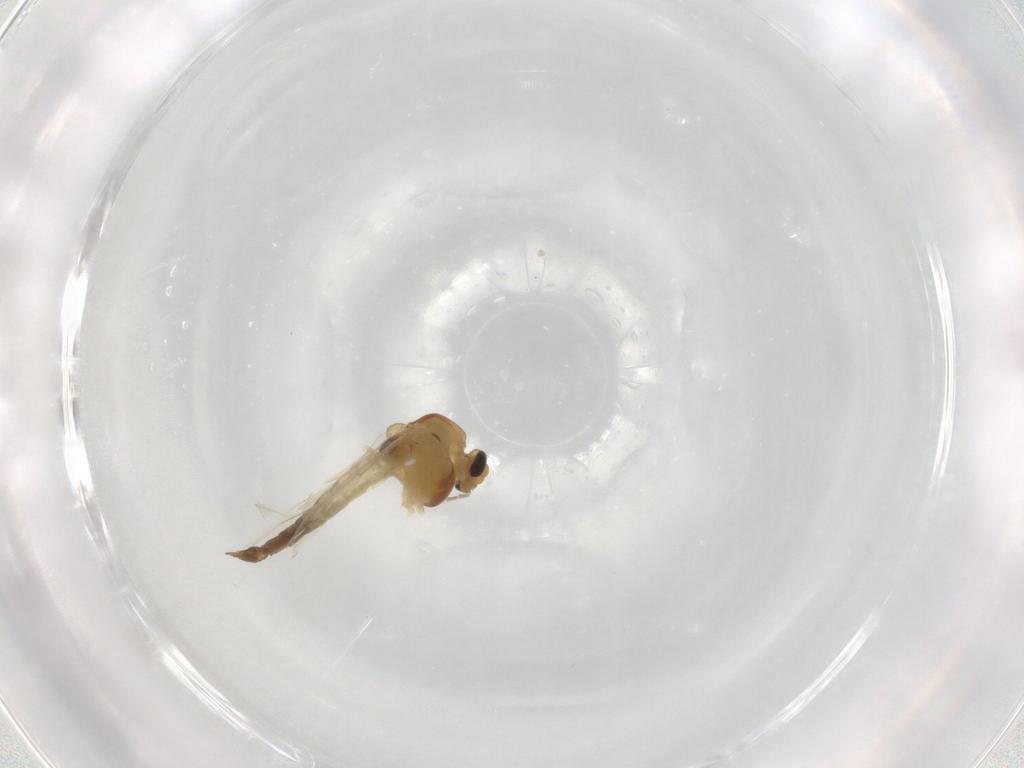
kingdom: Animalia
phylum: Arthropoda
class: Insecta
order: Diptera
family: Chironomidae
